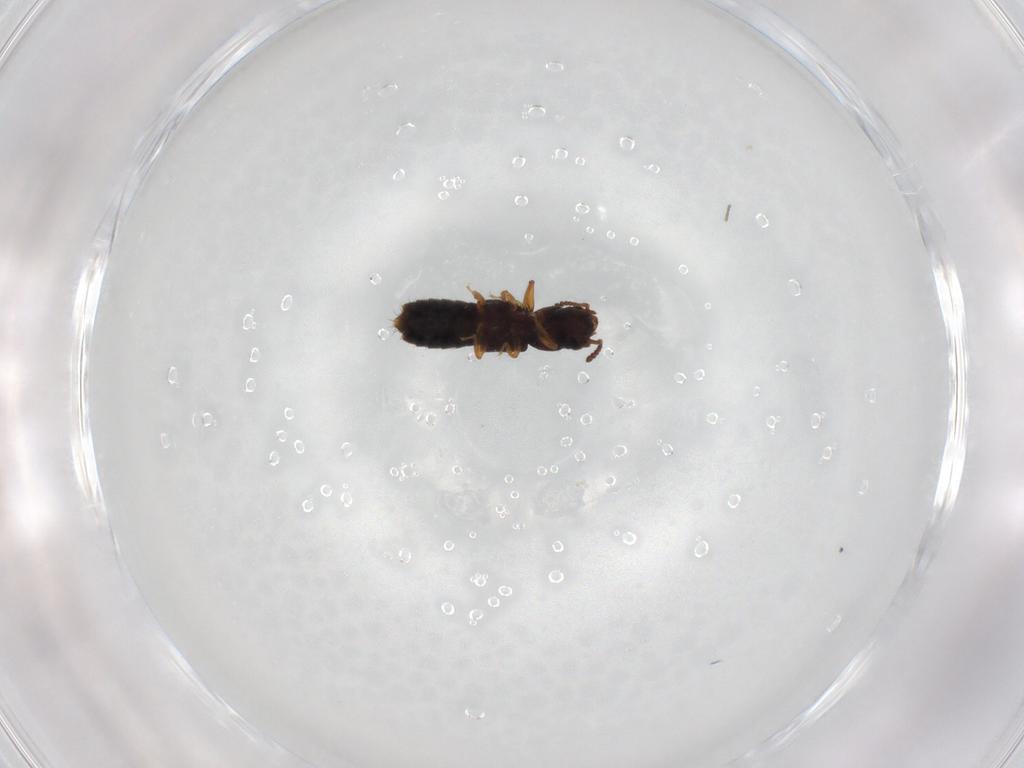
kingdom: Animalia
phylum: Arthropoda
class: Insecta
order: Coleoptera
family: Staphylinidae
